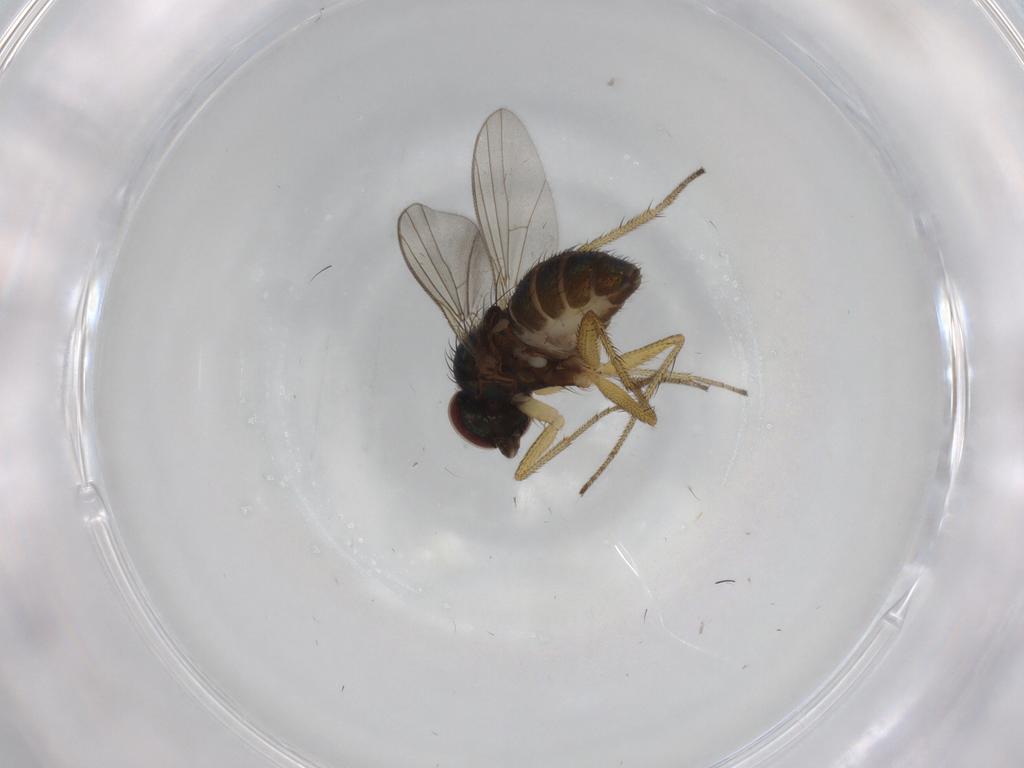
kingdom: Animalia
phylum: Arthropoda
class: Insecta
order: Diptera
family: Dolichopodidae
